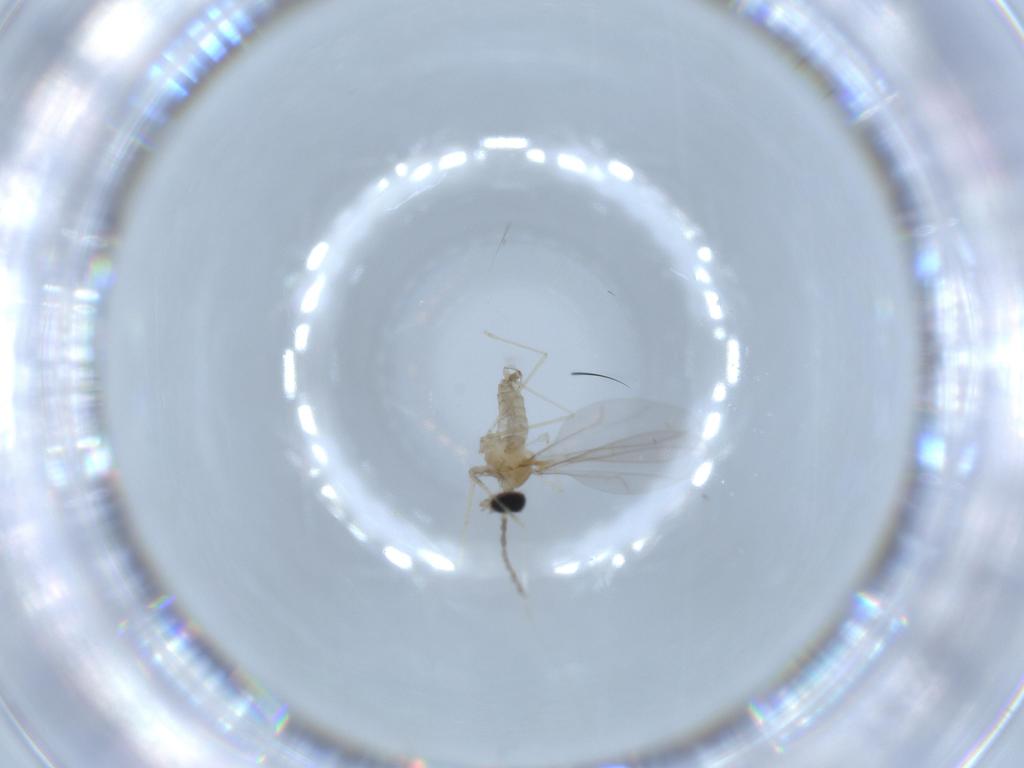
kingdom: Animalia
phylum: Arthropoda
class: Insecta
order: Diptera
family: Cecidomyiidae
